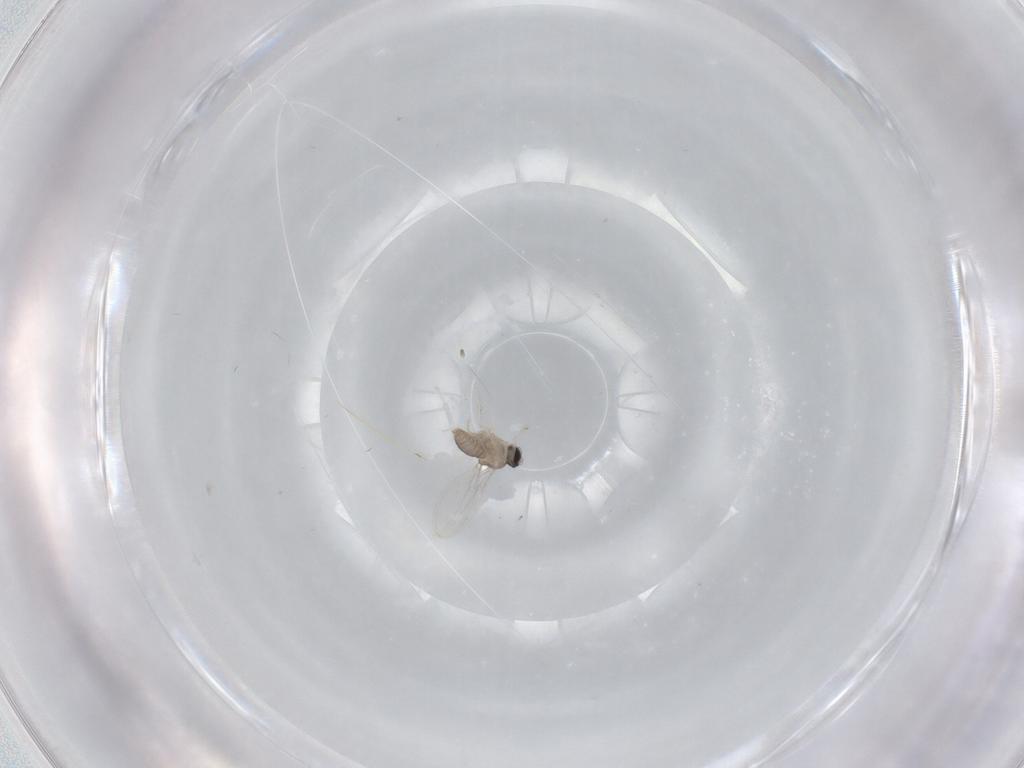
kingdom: Animalia
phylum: Arthropoda
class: Insecta
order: Diptera
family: Cecidomyiidae
